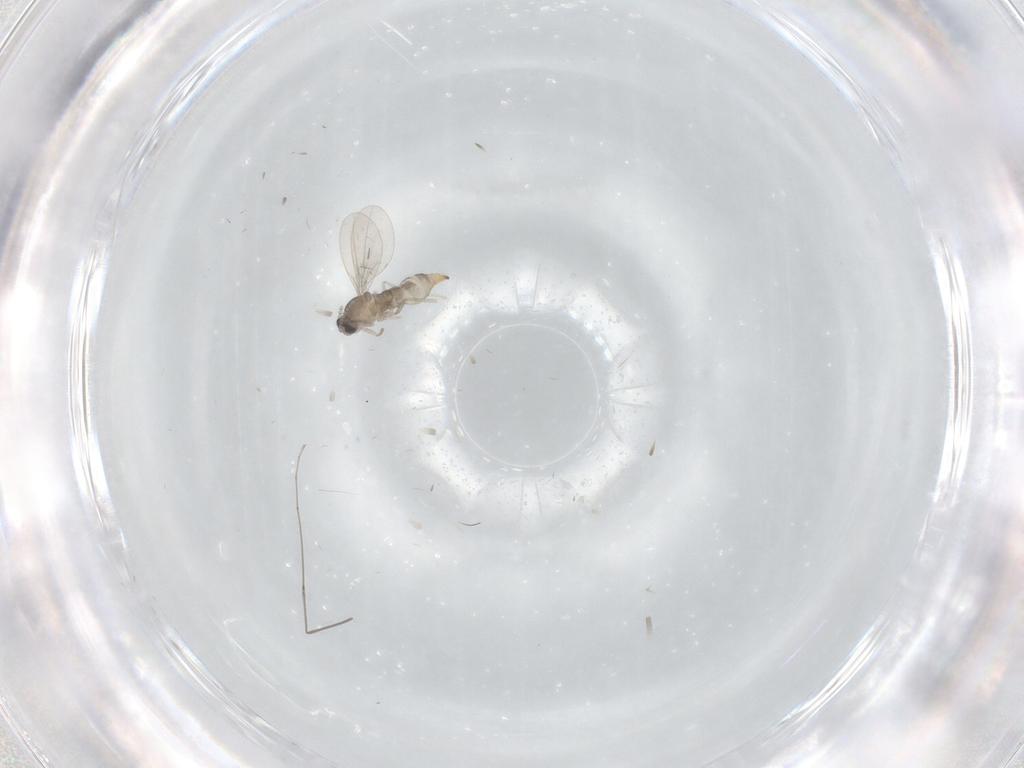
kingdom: Animalia
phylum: Arthropoda
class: Insecta
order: Diptera
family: Cecidomyiidae
